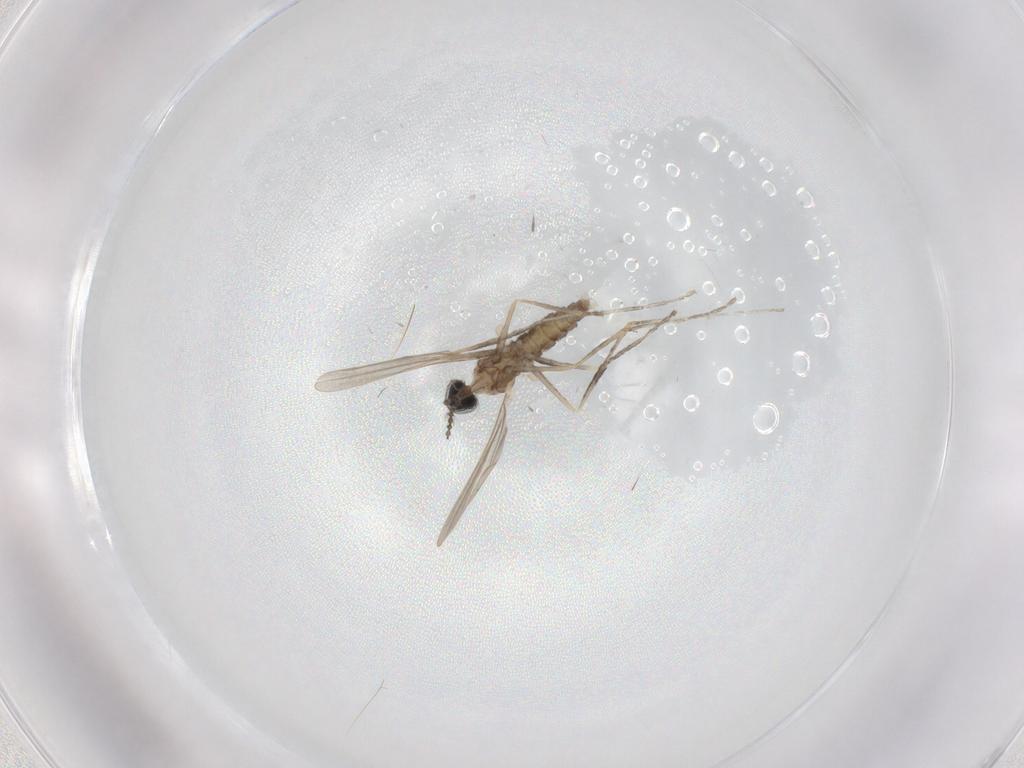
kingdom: Animalia
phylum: Arthropoda
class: Insecta
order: Diptera
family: Cecidomyiidae
